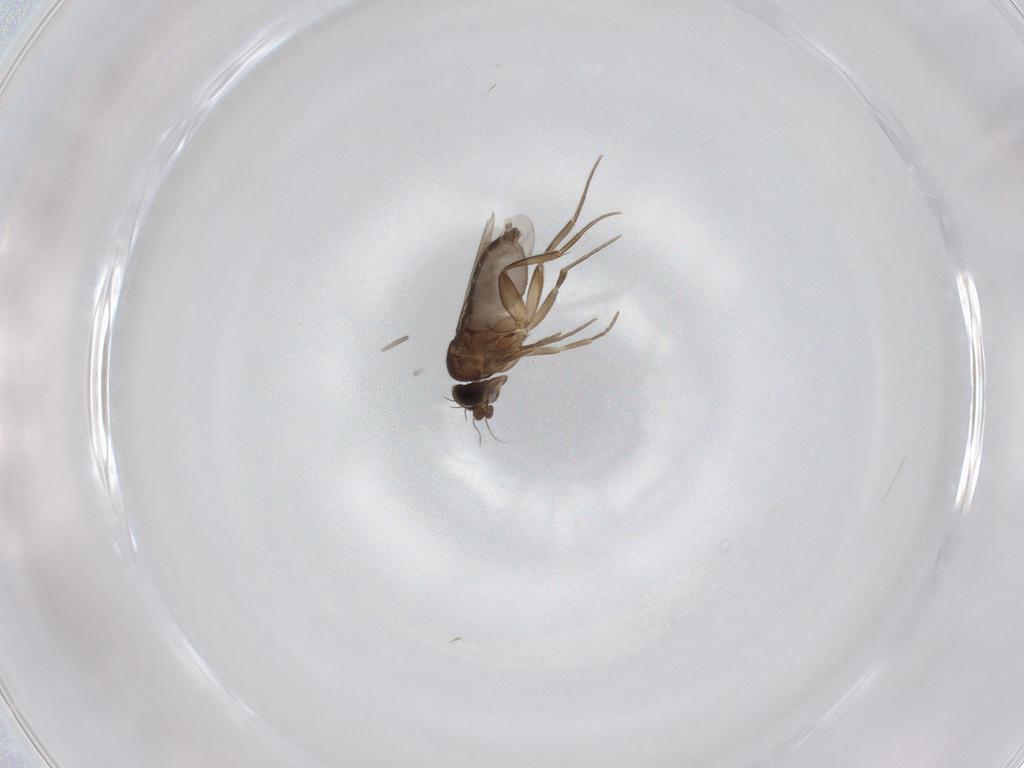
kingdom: Animalia
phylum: Arthropoda
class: Insecta
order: Diptera
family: Phoridae
